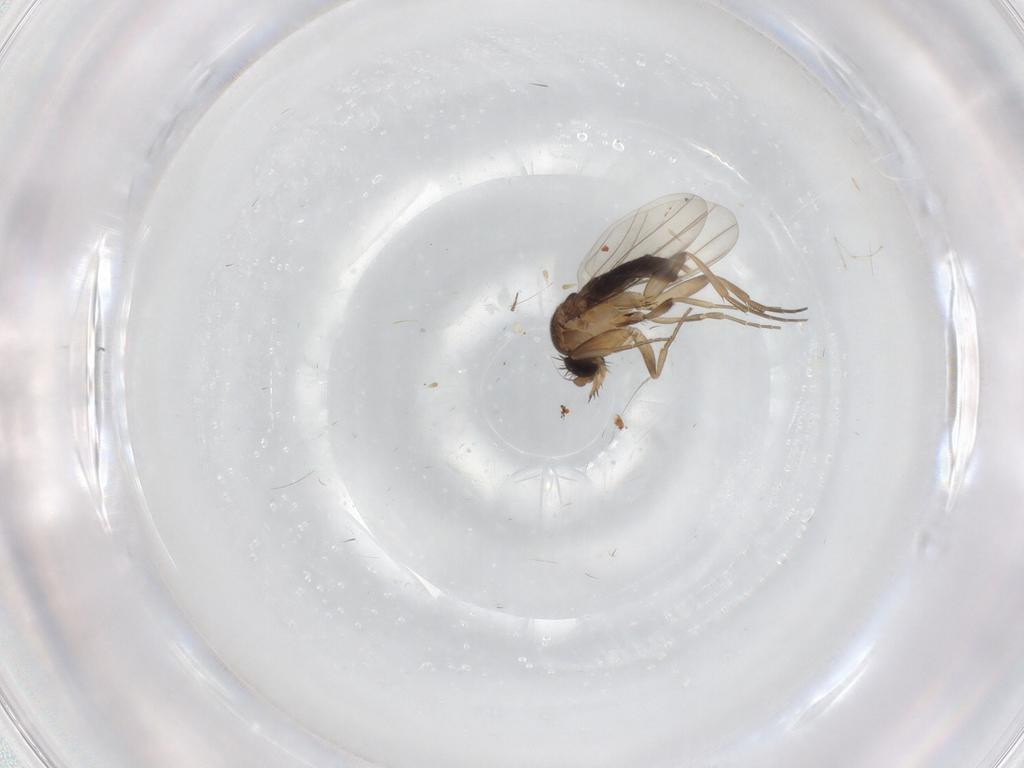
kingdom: Animalia
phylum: Arthropoda
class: Insecta
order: Diptera
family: Phoridae
